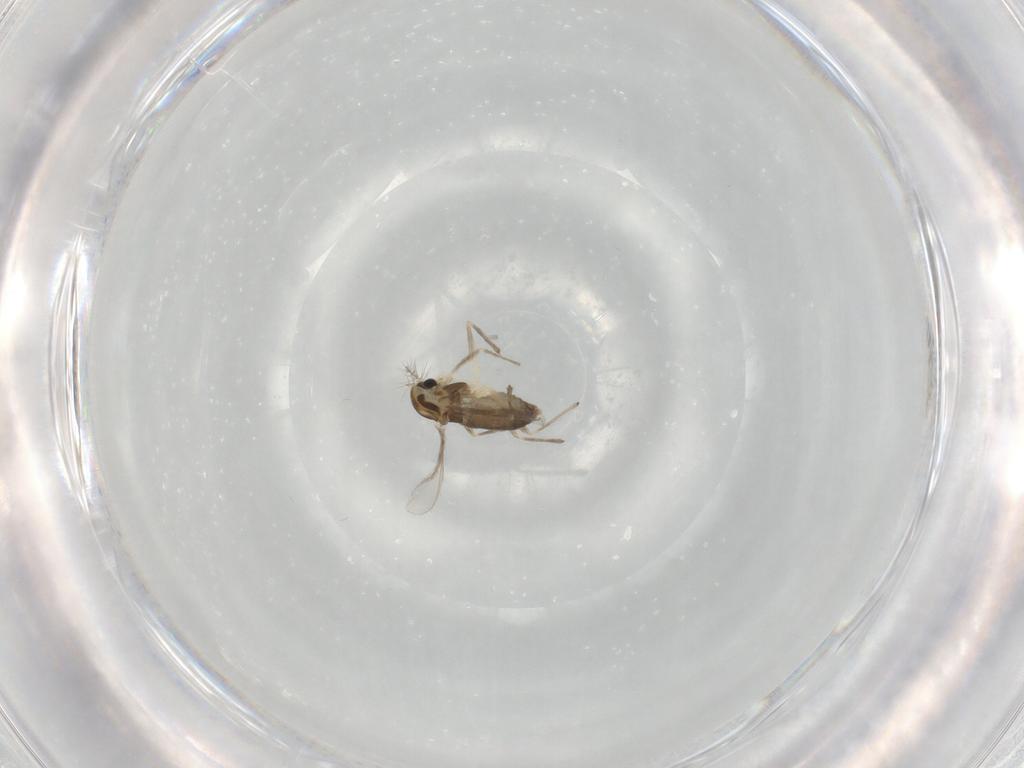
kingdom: Animalia
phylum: Arthropoda
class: Insecta
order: Diptera
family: Chironomidae
